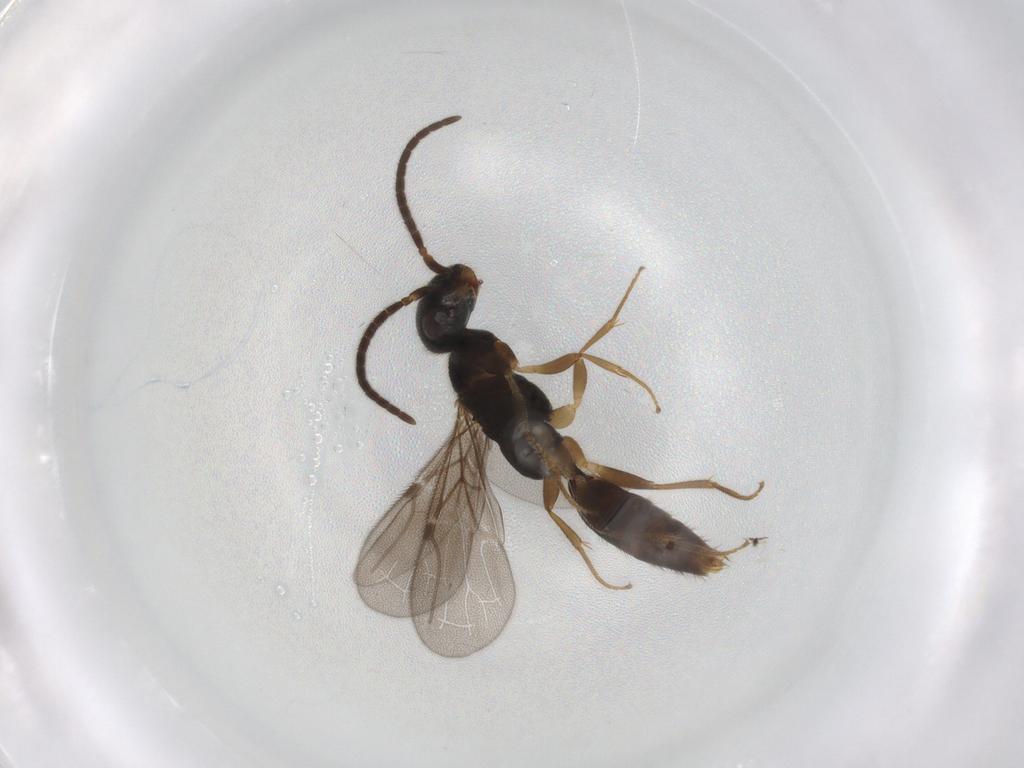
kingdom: Animalia
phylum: Arthropoda
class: Insecta
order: Hymenoptera
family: Bethylidae
